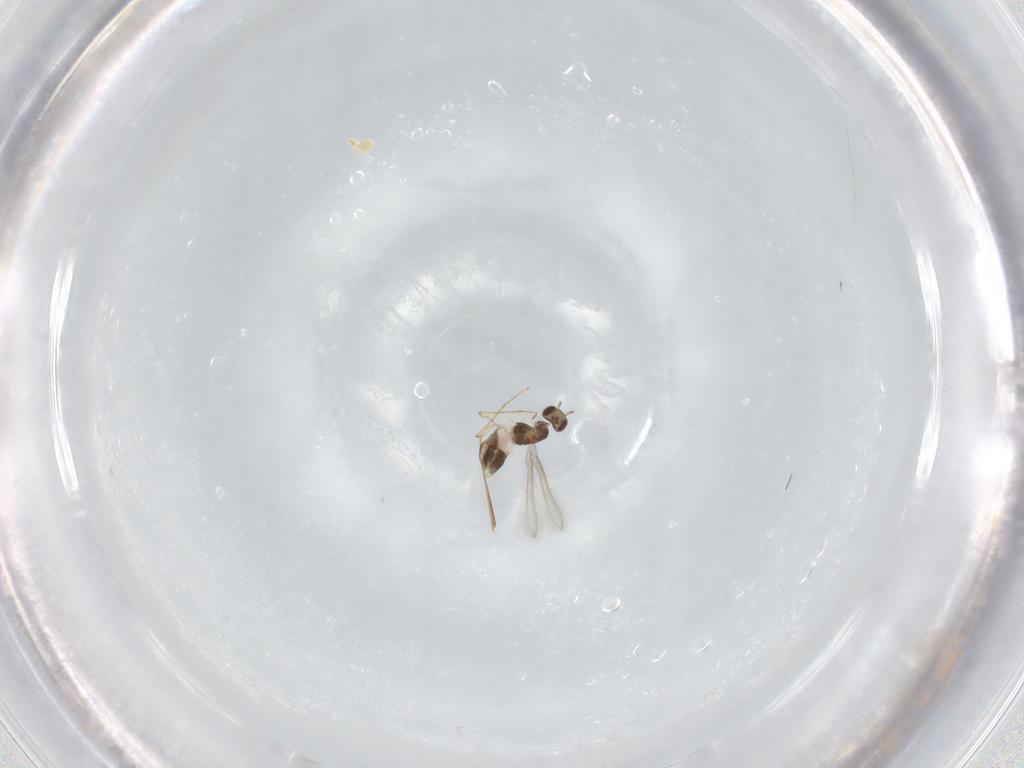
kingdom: Animalia
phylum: Arthropoda
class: Insecta
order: Hymenoptera
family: Mymaridae
